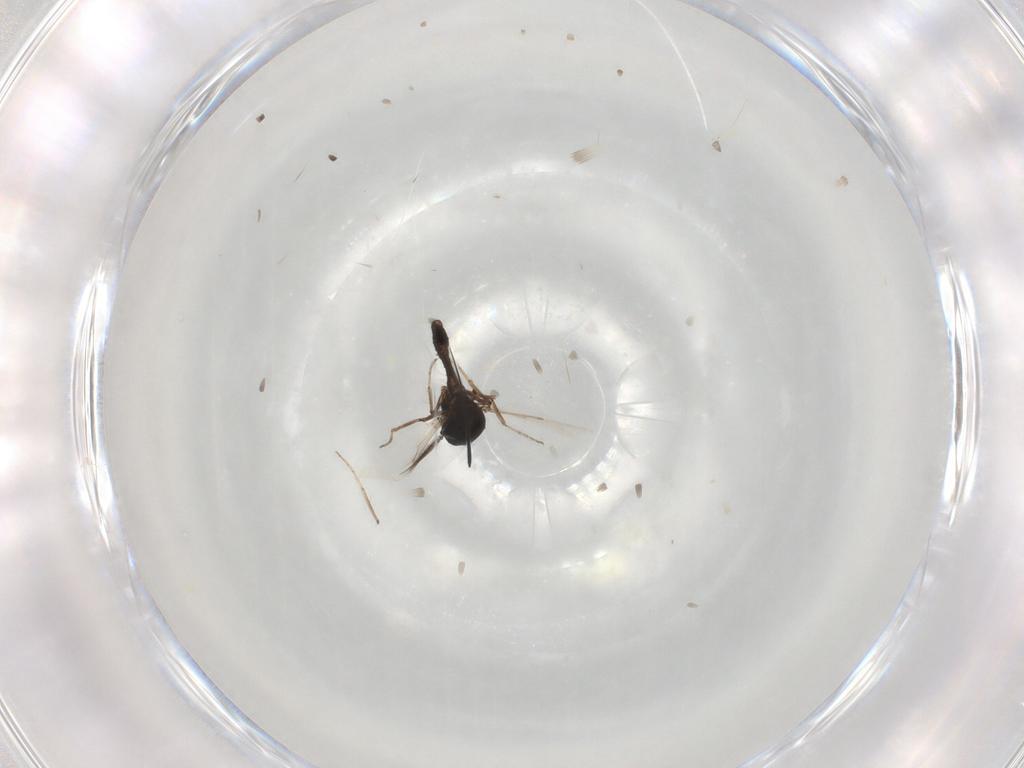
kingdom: Animalia
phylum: Arthropoda
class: Insecta
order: Diptera
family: Ceratopogonidae
